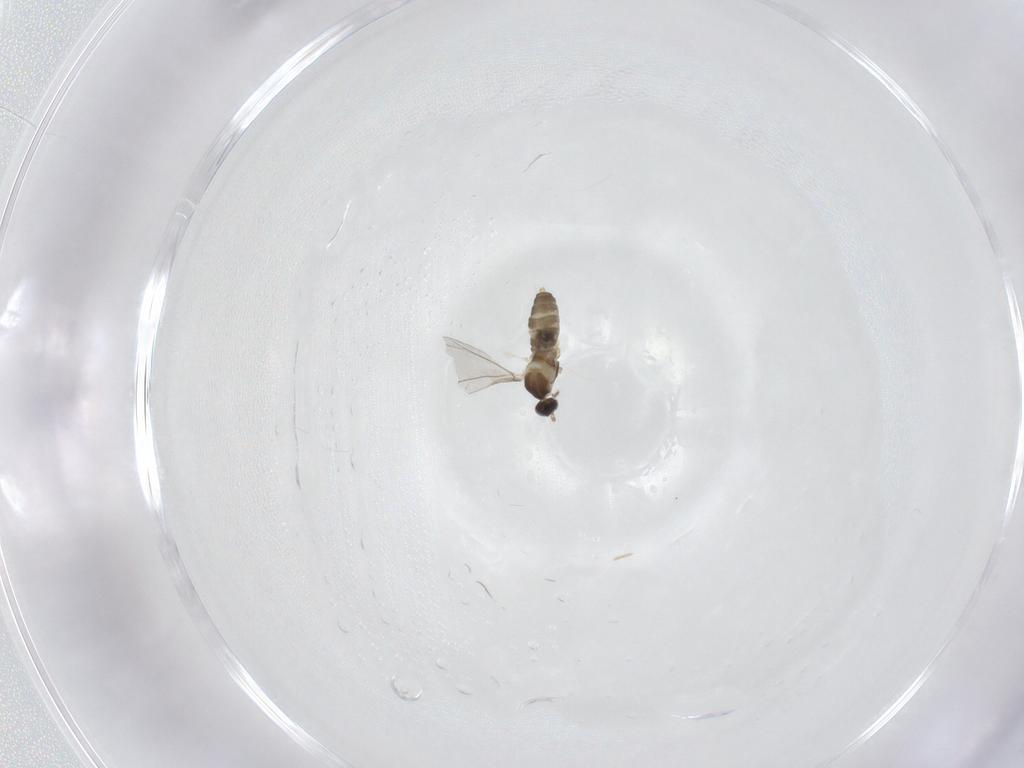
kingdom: Animalia
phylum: Arthropoda
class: Insecta
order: Diptera
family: Cecidomyiidae
